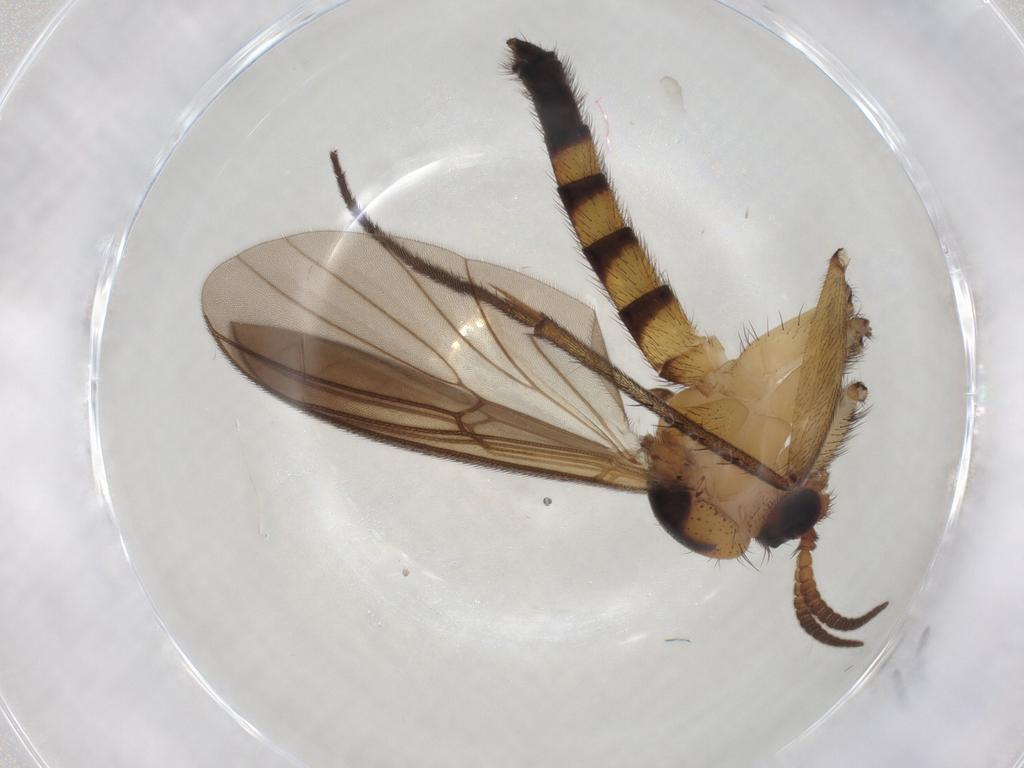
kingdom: Animalia
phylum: Arthropoda
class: Insecta
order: Diptera
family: Mycetophilidae
